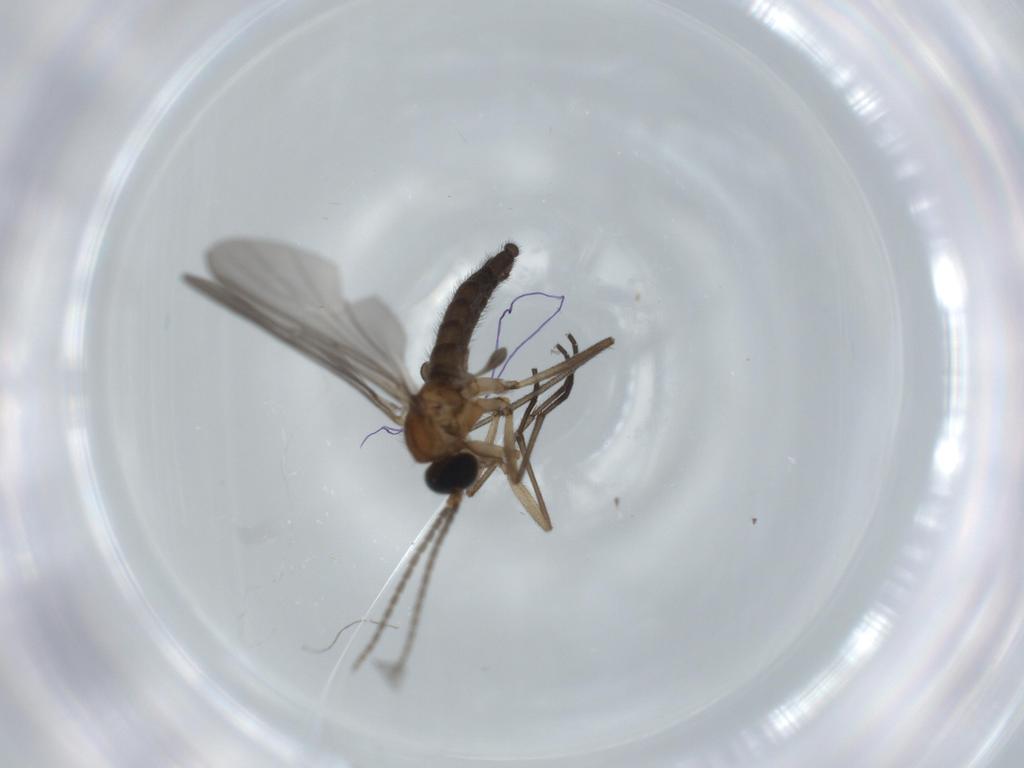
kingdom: Animalia
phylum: Arthropoda
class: Insecta
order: Diptera
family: Sciaridae
